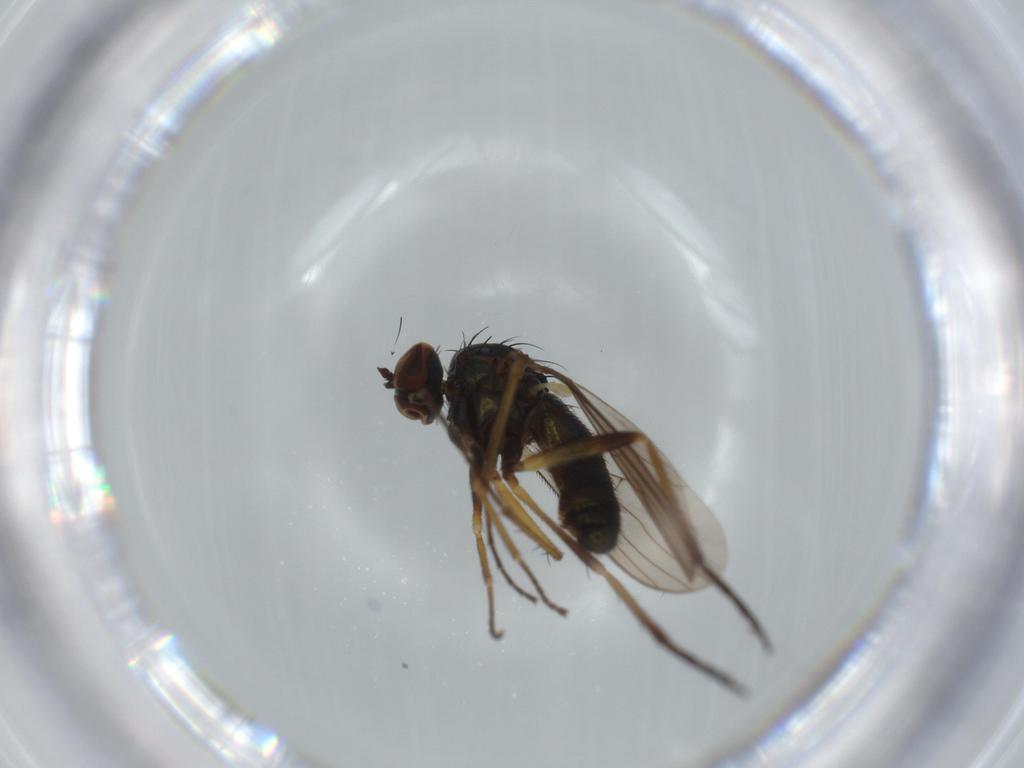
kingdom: Animalia
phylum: Arthropoda
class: Insecta
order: Diptera
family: Dolichopodidae
